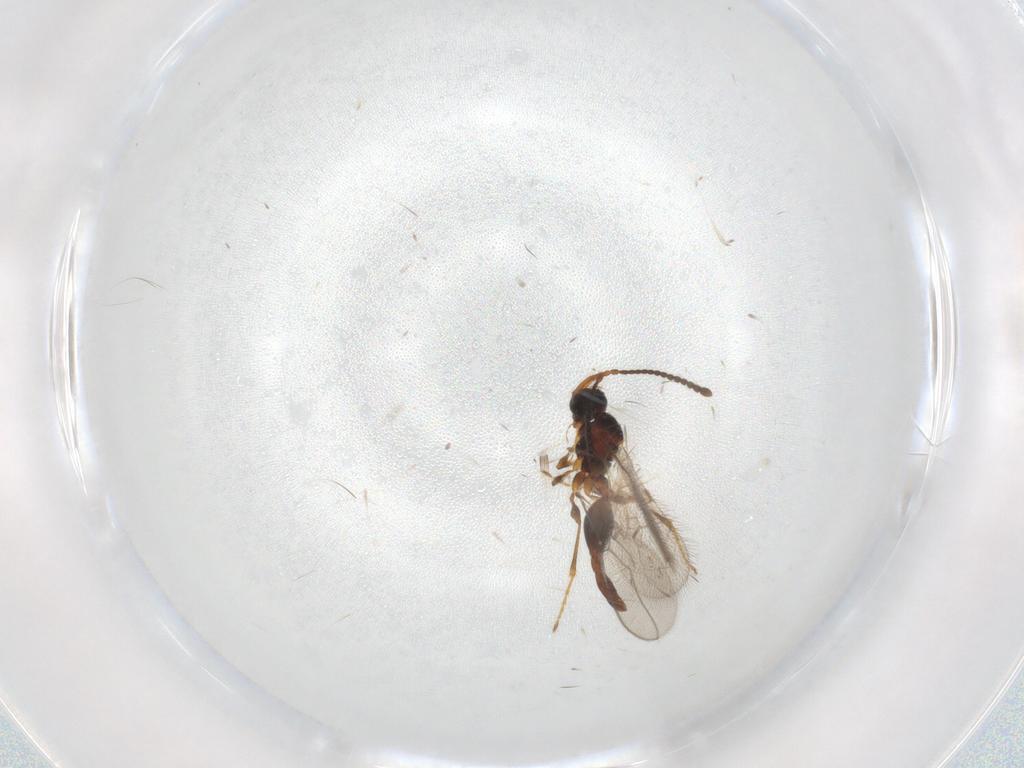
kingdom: Animalia
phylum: Arthropoda
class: Insecta
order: Hymenoptera
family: Braconidae
